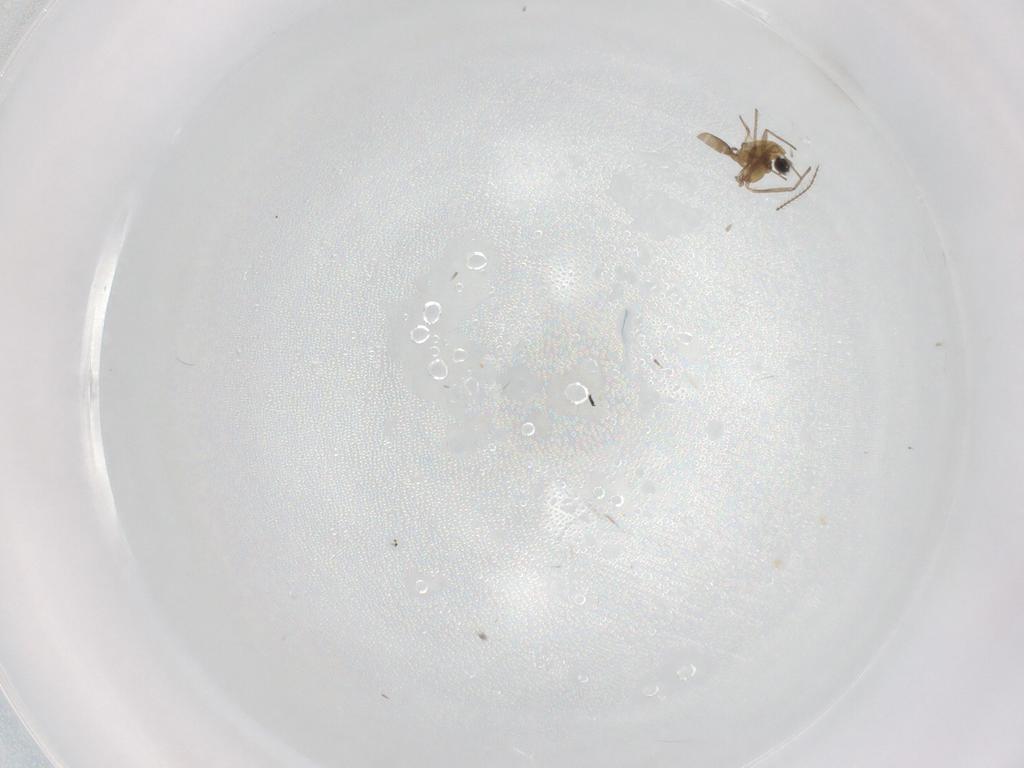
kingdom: Animalia
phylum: Arthropoda
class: Insecta
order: Diptera
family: Chironomidae
